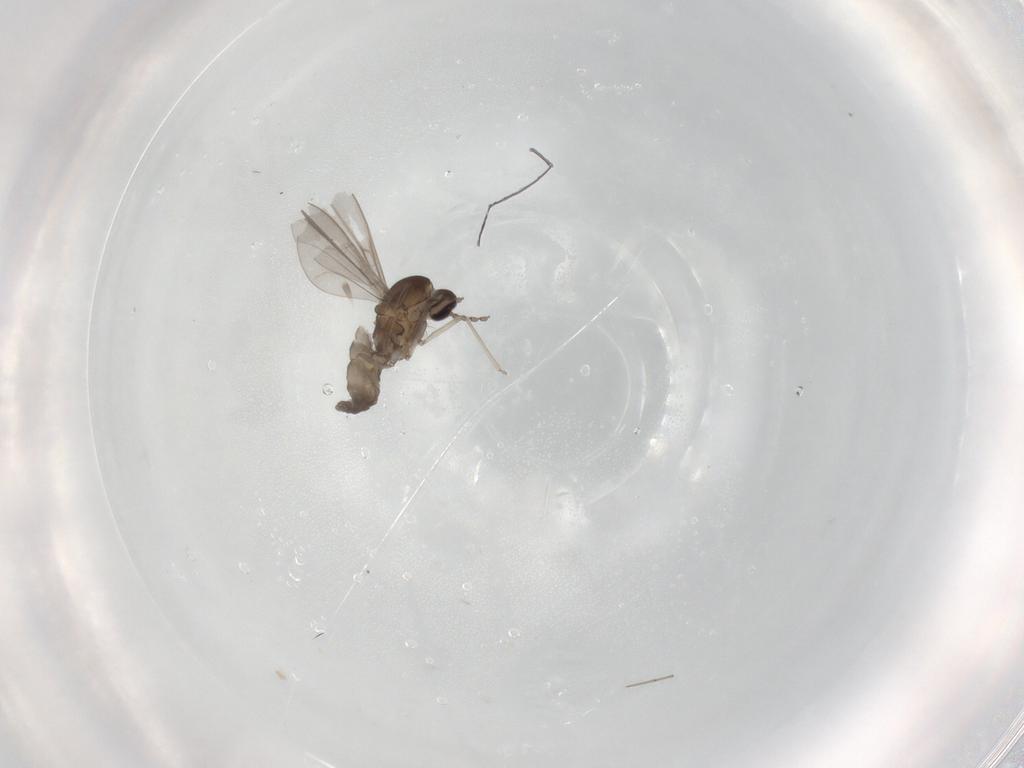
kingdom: Animalia
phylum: Arthropoda
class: Insecta
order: Diptera
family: Cecidomyiidae
